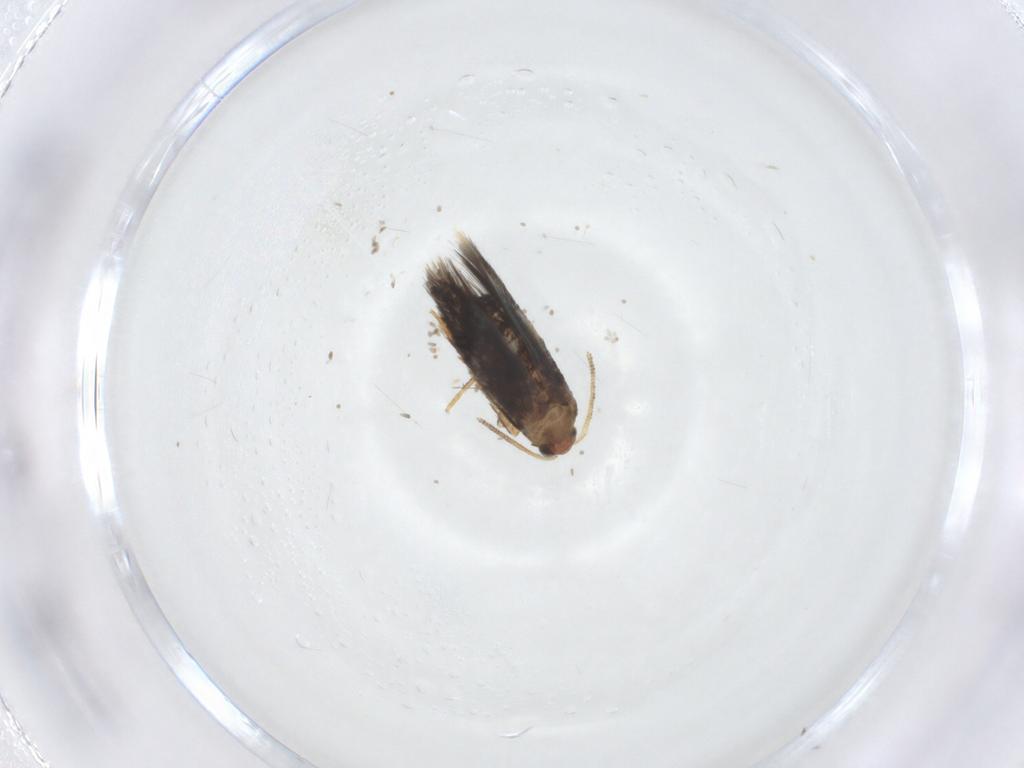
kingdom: Animalia
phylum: Arthropoda
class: Insecta
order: Lepidoptera
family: Nepticulidae
